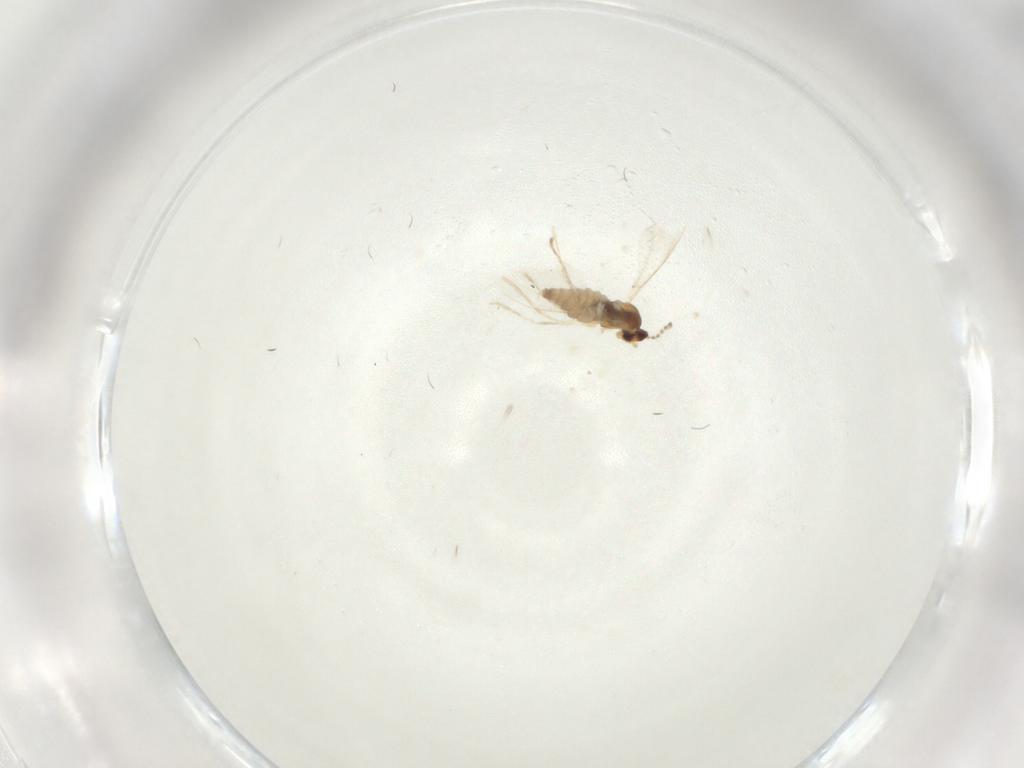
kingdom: Animalia
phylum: Arthropoda
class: Insecta
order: Diptera
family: Cecidomyiidae
